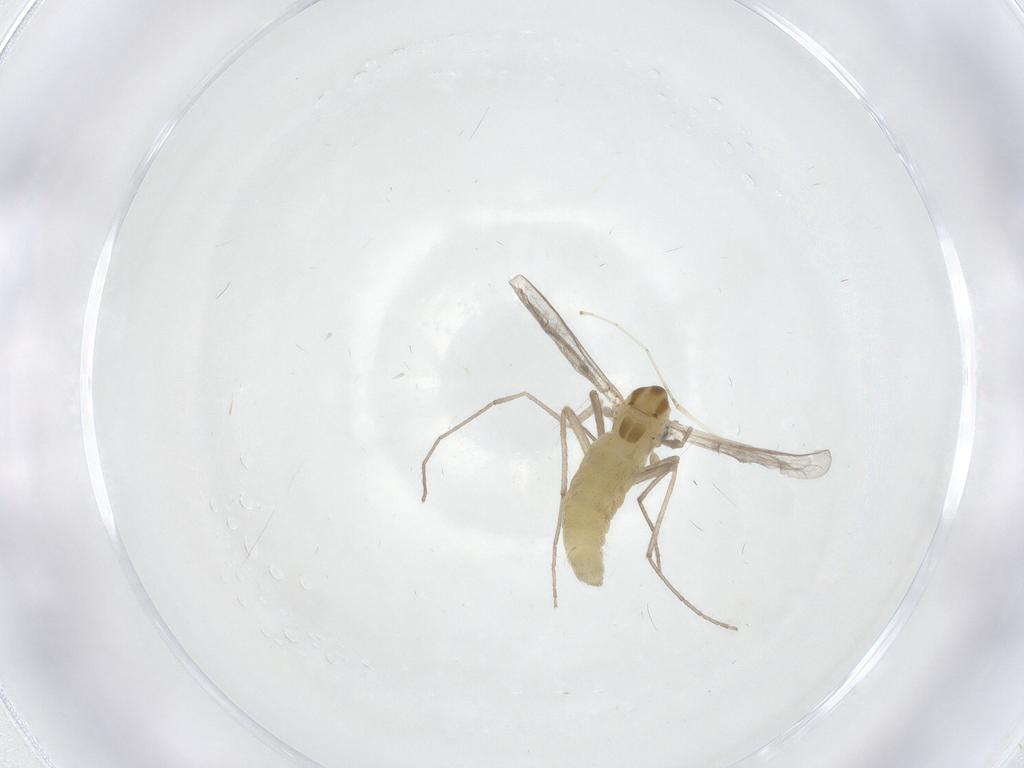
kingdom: Animalia
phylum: Arthropoda
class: Insecta
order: Diptera
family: Chironomidae
